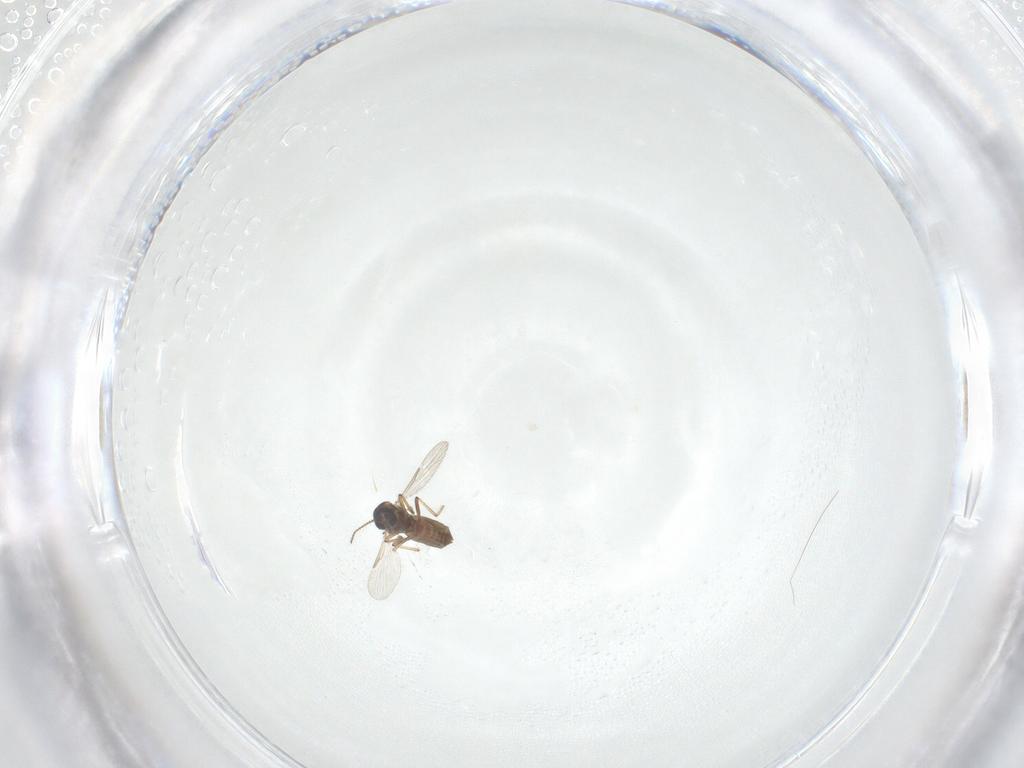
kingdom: Animalia
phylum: Arthropoda
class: Insecta
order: Diptera
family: Ceratopogonidae
